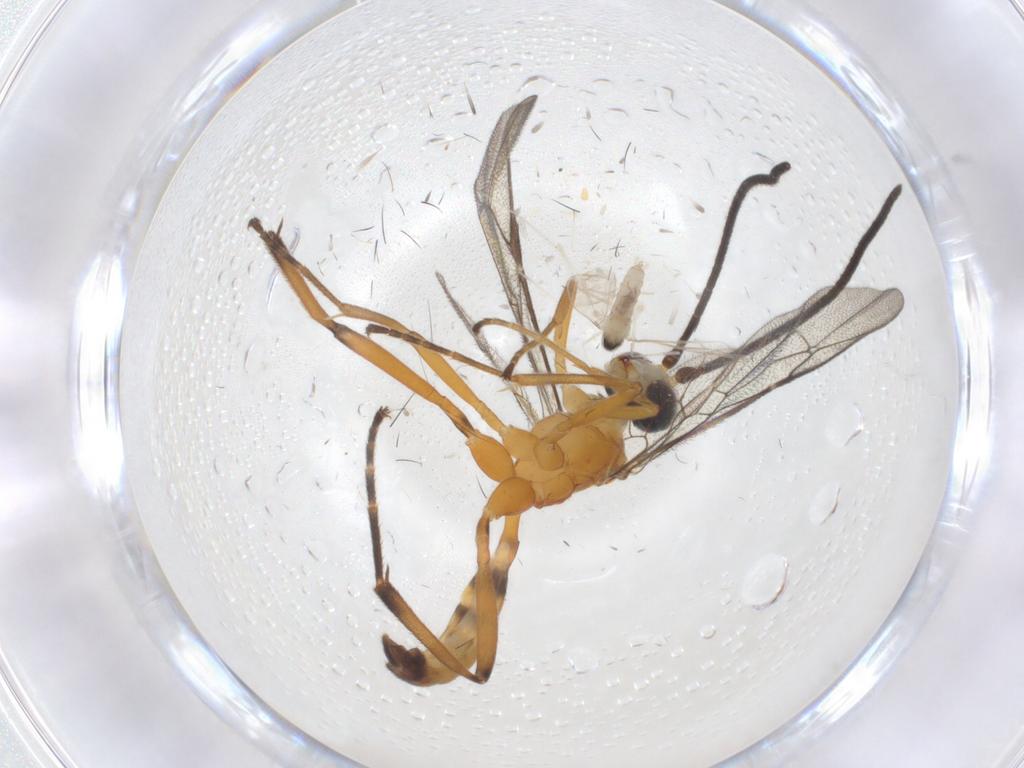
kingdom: Animalia
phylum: Arthropoda
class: Insecta
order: Hymenoptera
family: Ichneumonidae
